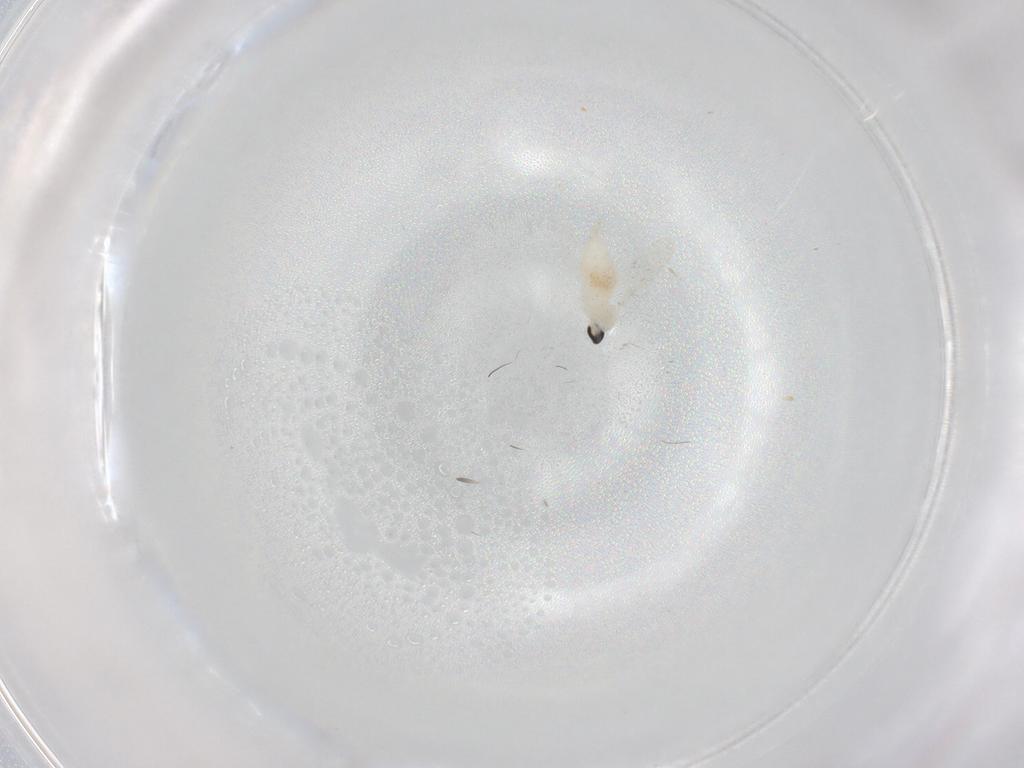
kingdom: Animalia
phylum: Arthropoda
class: Insecta
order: Diptera
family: Cecidomyiidae
